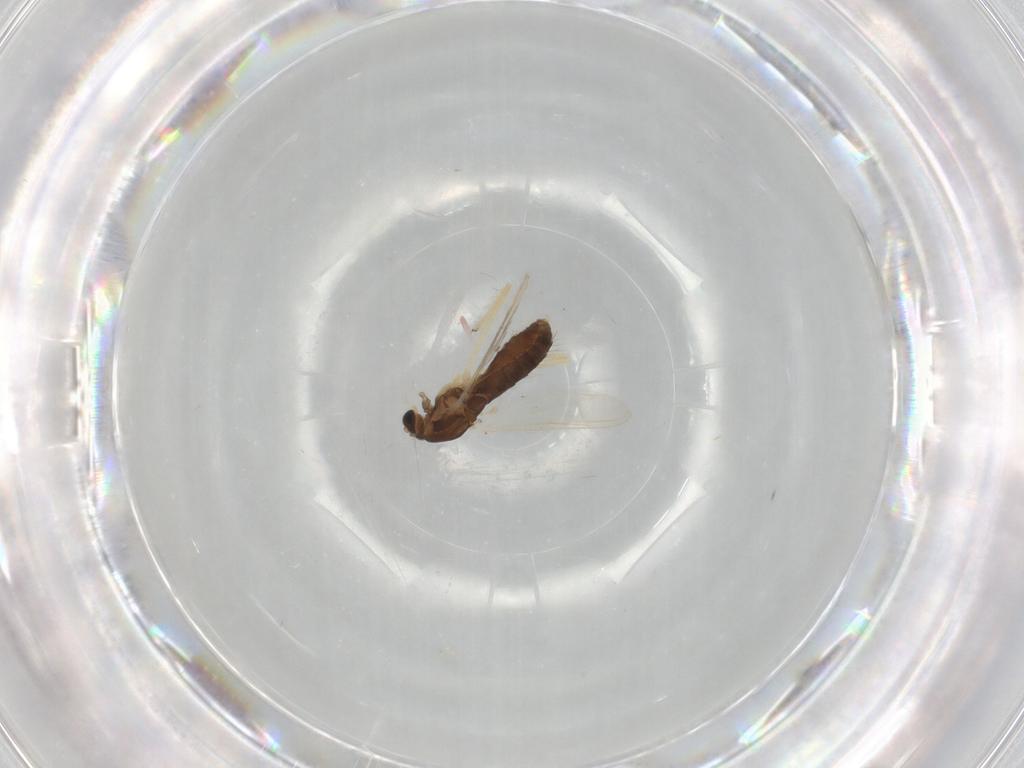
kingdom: Animalia
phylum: Arthropoda
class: Insecta
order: Diptera
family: Chironomidae
